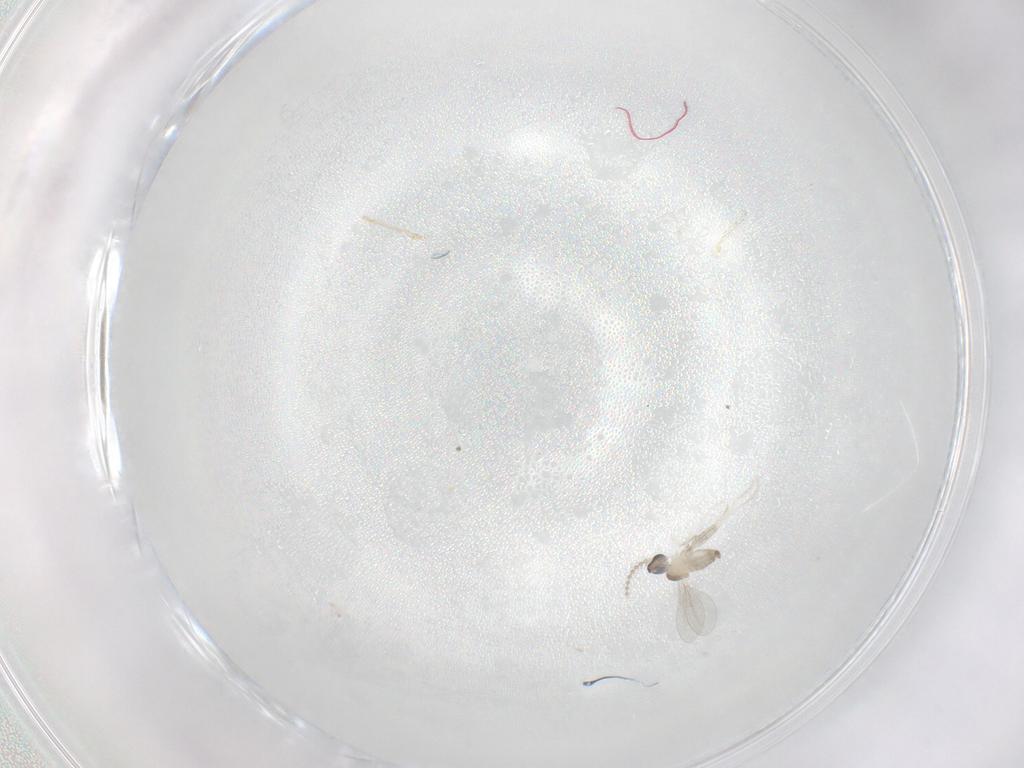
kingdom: Animalia
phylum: Arthropoda
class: Insecta
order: Diptera
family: Cecidomyiidae
